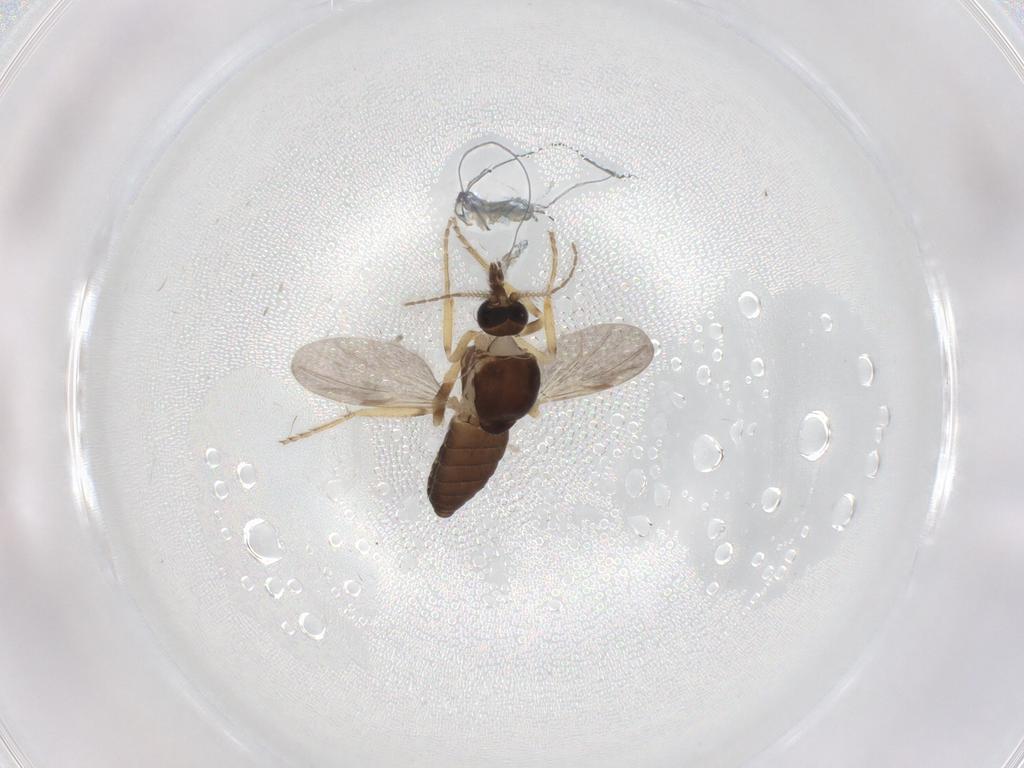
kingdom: Animalia
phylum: Arthropoda
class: Insecta
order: Diptera
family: Ceratopogonidae
